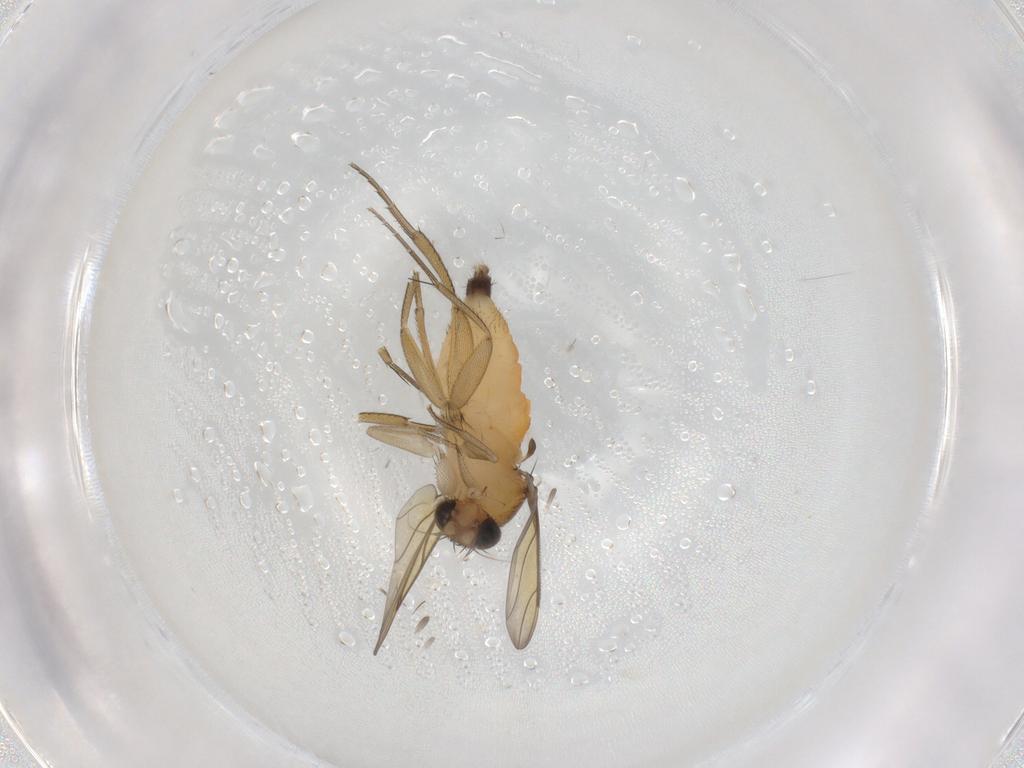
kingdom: Animalia
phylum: Arthropoda
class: Insecta
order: Diptera
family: Phoridae
